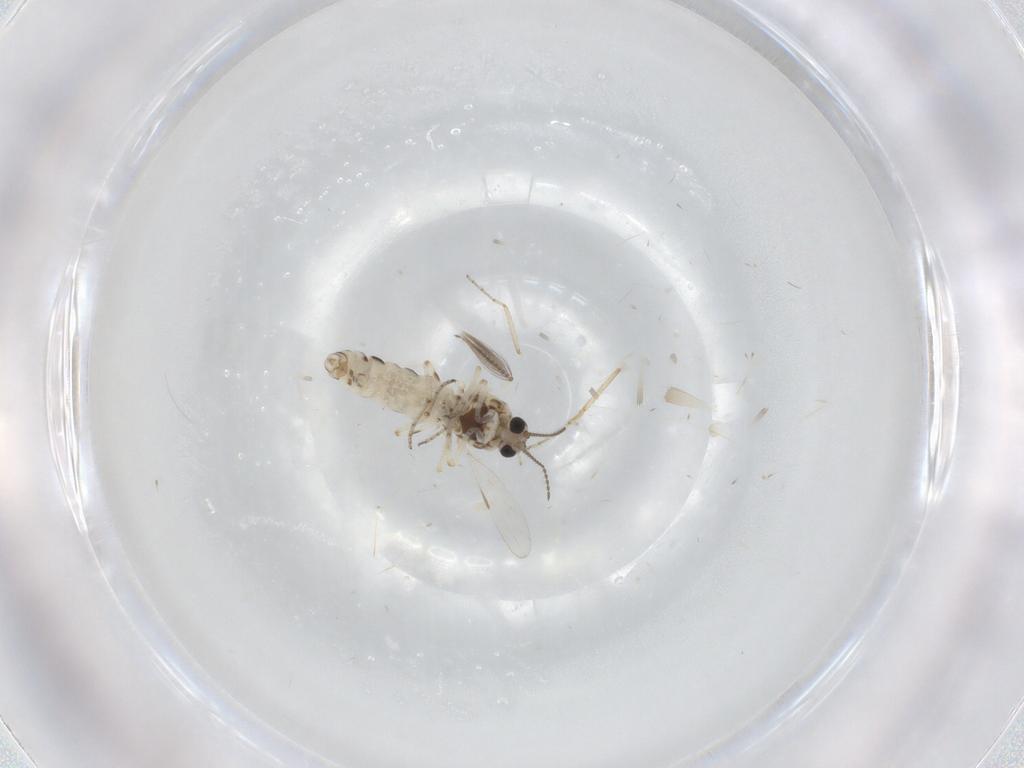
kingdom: Animalia
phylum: Arthropoda
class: Insecta
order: Diptera
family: Ceratopogonidae
